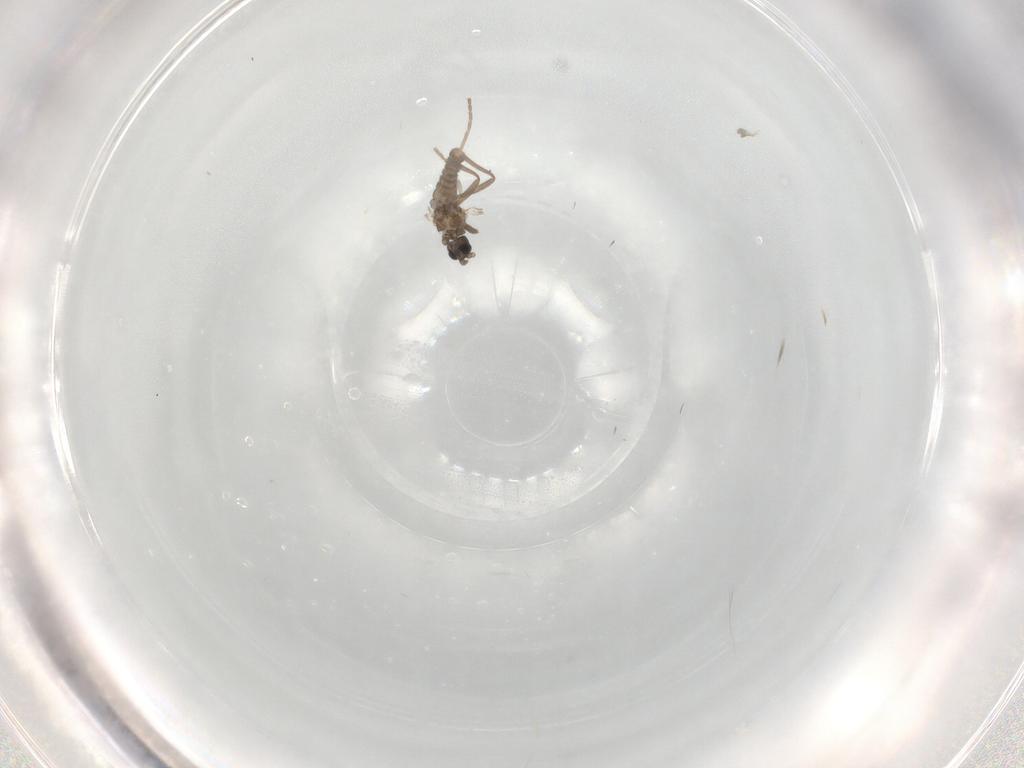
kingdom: Animalia
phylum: Arthropoda
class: Insecta
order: Diptera
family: Cecidomyiidae
